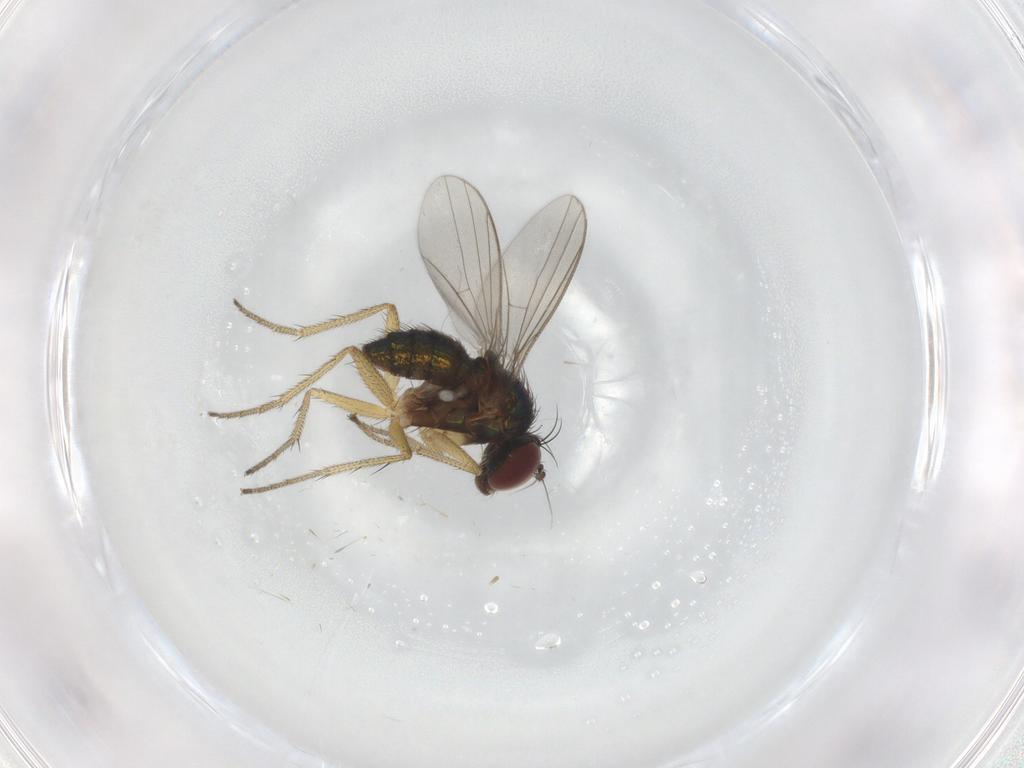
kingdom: Animalia
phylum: Arthropoda
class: Insecta
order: Diptera
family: Dolichopodidae
